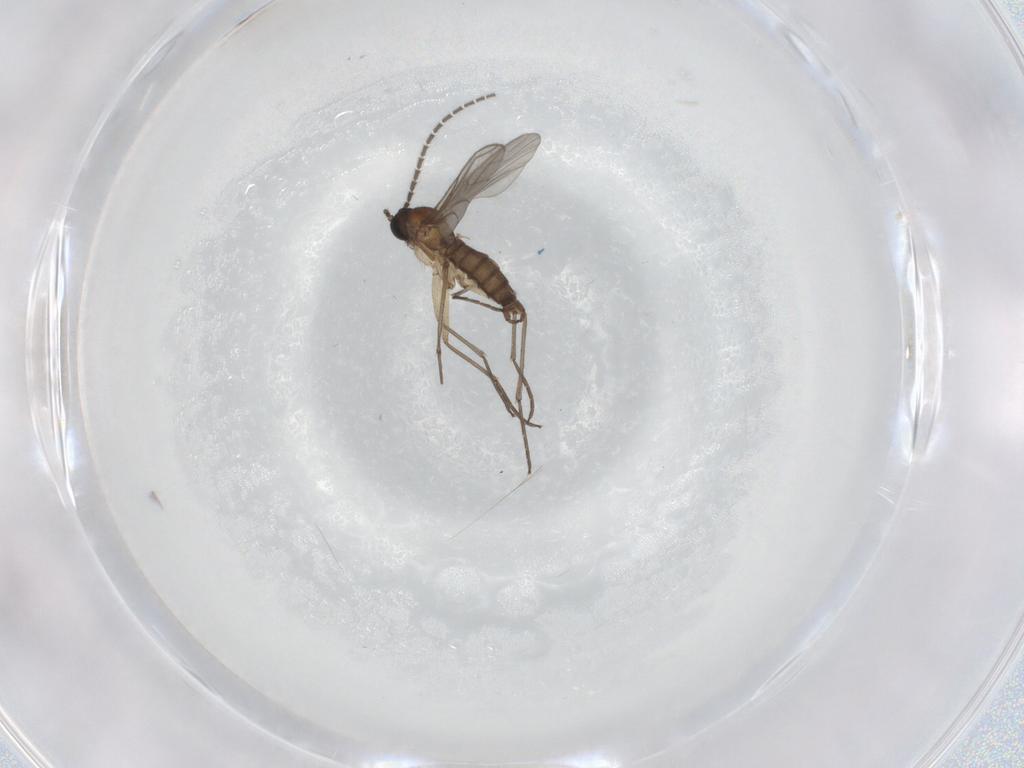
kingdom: Animalia
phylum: Arthropoda
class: Insecta
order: Diptera
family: Sciaridae
